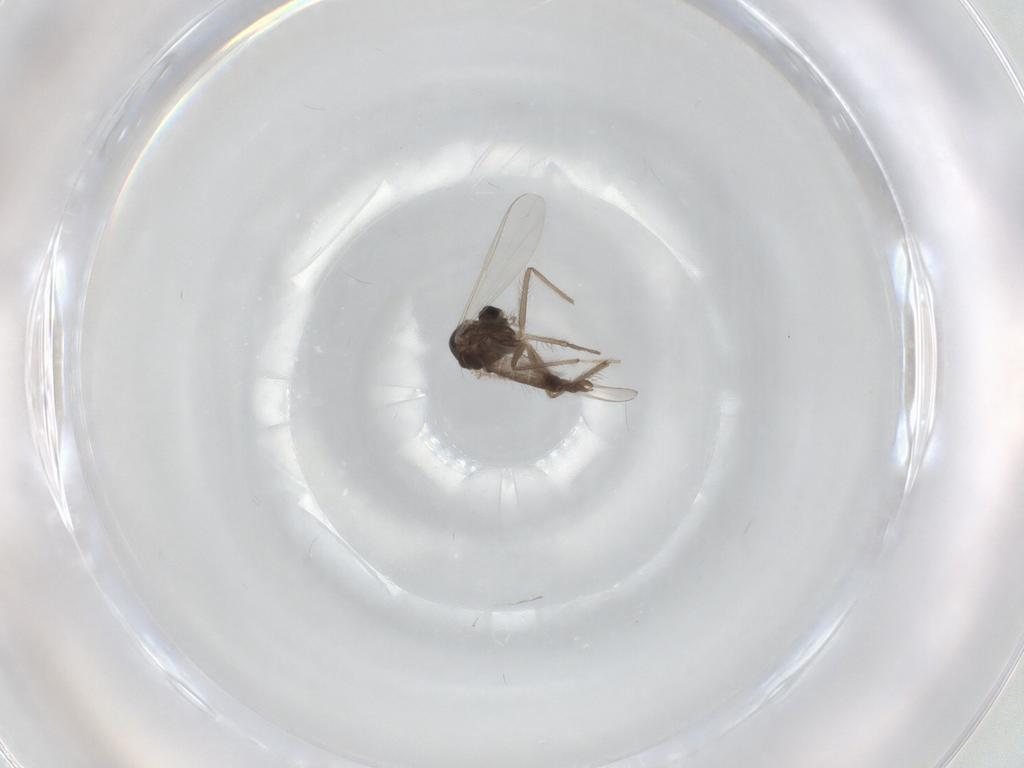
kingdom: Animalia
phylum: Arthropoda
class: Insecta
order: Diptera
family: Chironomidae
